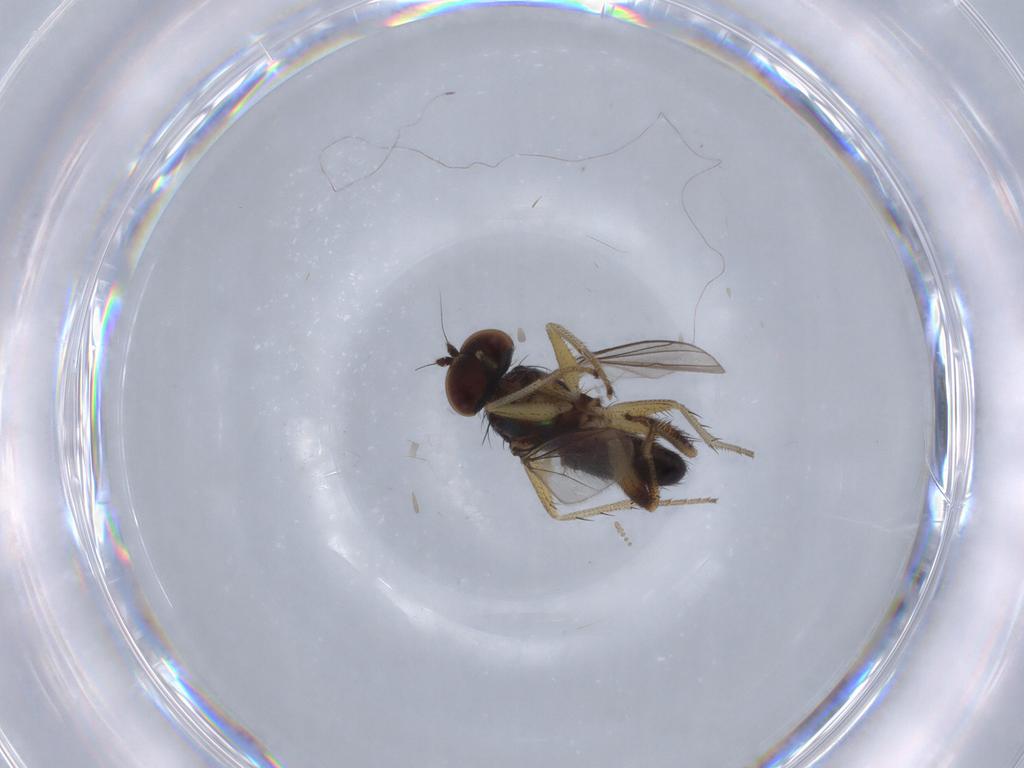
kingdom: Animalia
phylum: Arthropoda
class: Insecta
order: Diptera
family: Dolichopodidae
